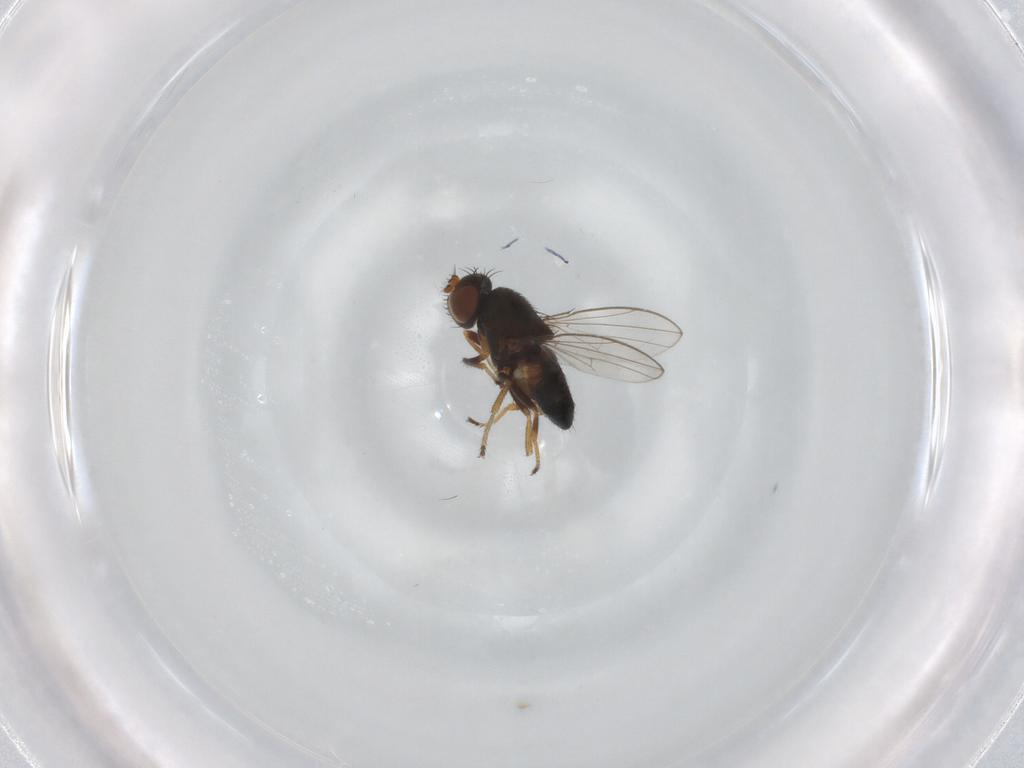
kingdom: Animalia
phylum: Arthropoda
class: Insecta
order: Diptera
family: Ephydridae
